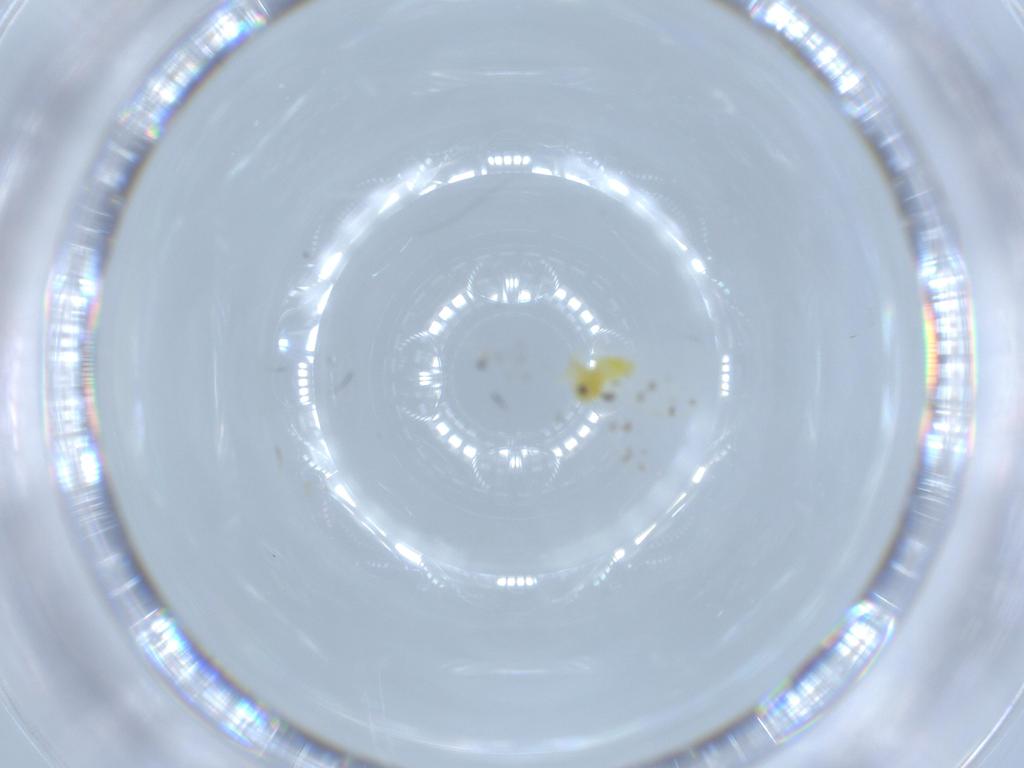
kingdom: Animalia
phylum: Arthropoda
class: Insecta
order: Hemiptera
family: Aleyrodidae
